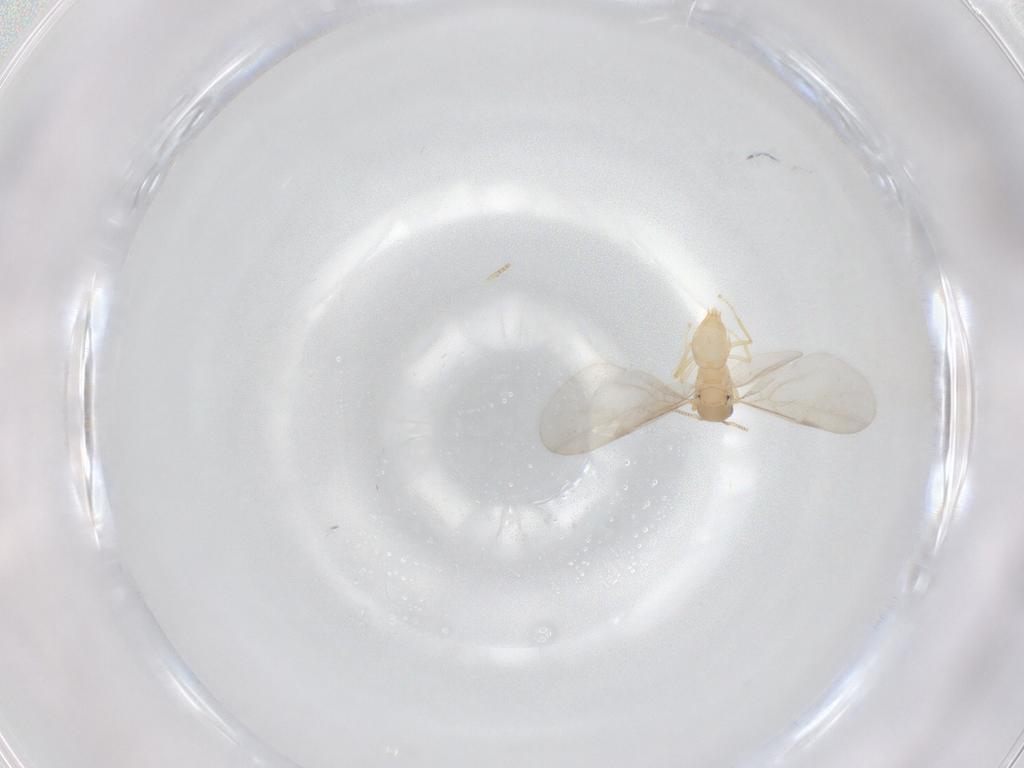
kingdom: Animalia
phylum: Arthropoda
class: Insecta
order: Hymenoptera
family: Formicidae
